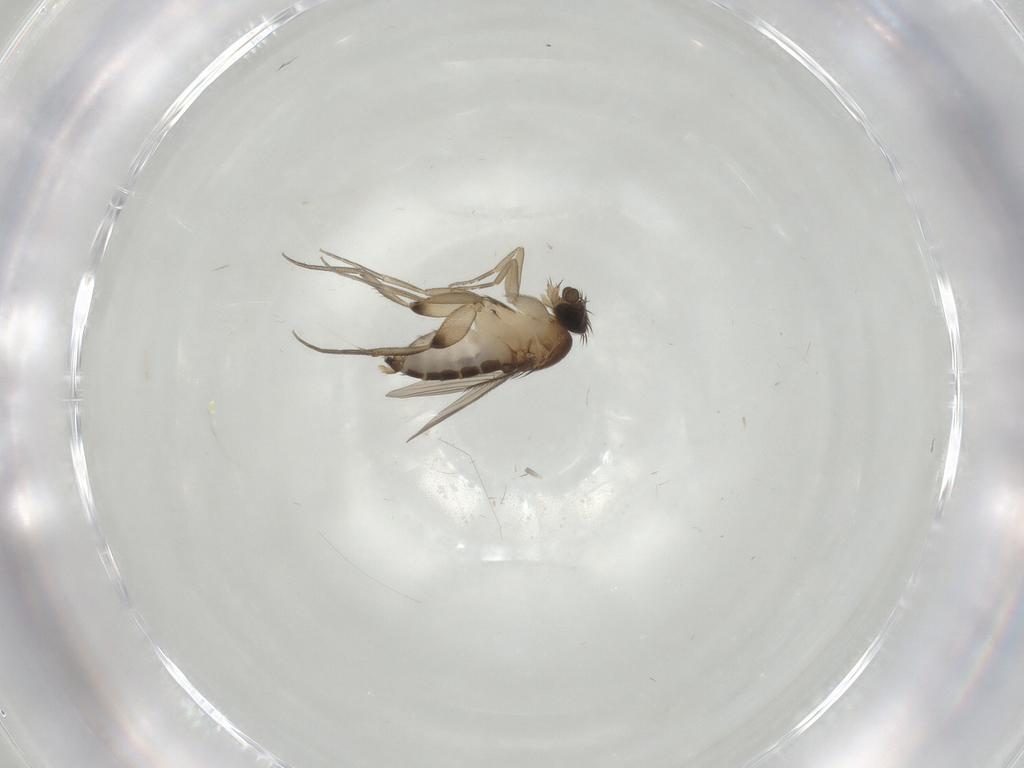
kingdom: Animalia
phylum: Arthropoda
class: Insecta
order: Diptera
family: Phoridae
